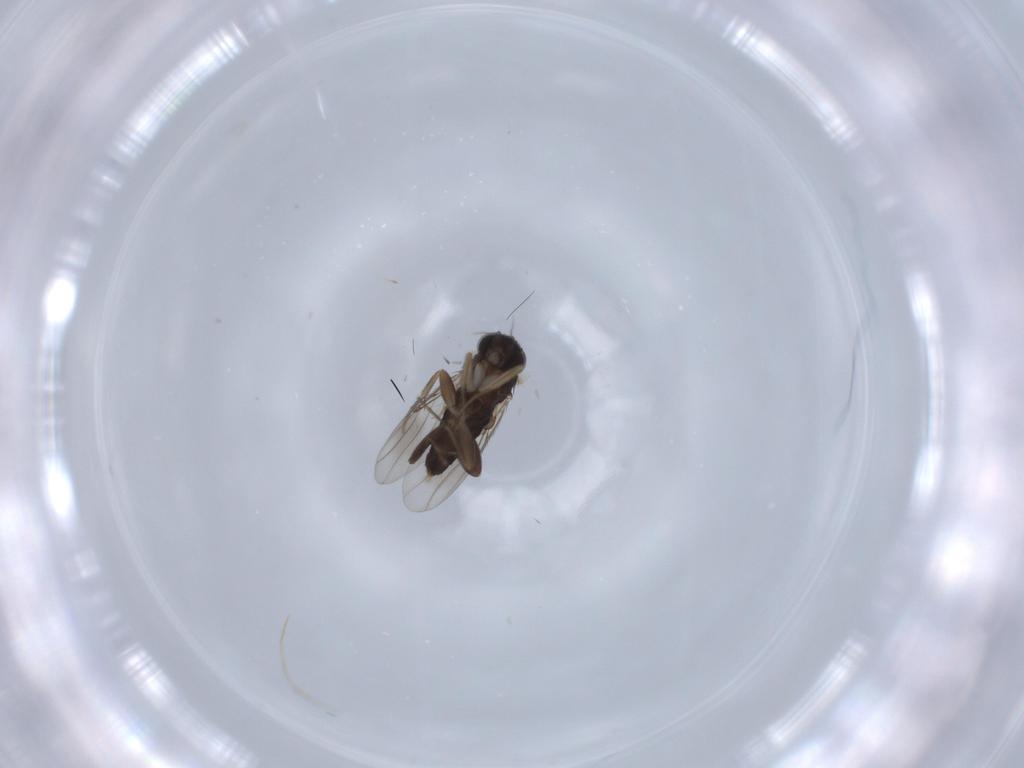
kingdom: Animalia
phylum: Arthropoda
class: Insecta
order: Diptera
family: Phoridae
